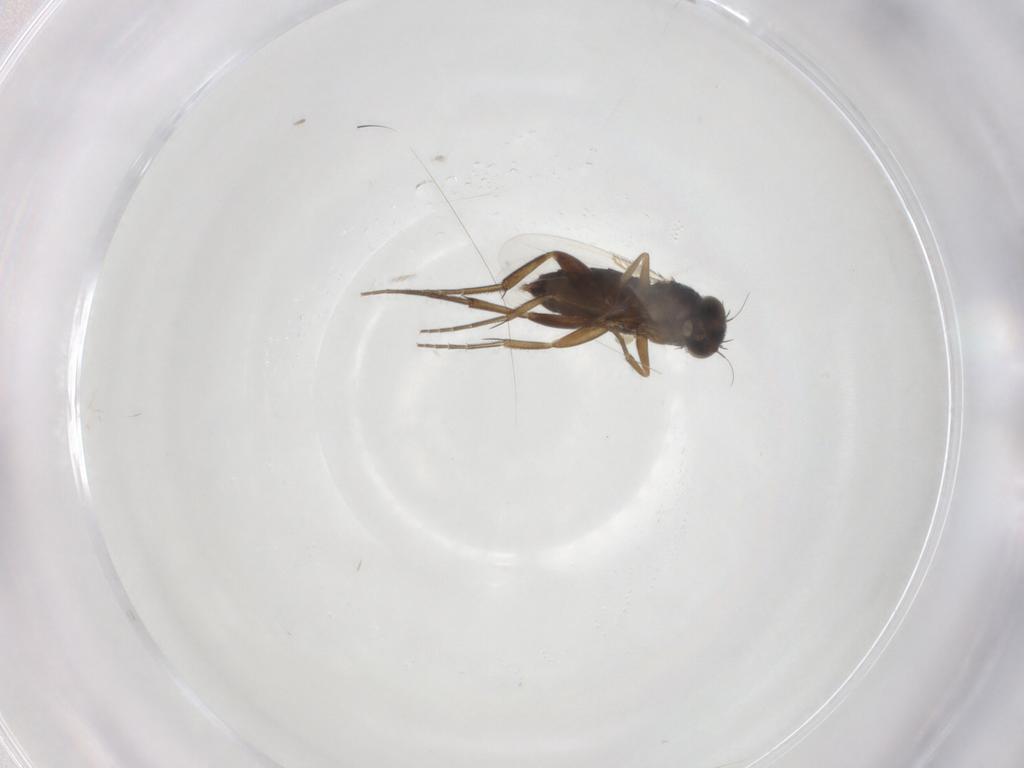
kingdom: Animalia
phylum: Arthropoda
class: Insecta
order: Diptera
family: Phoridae
